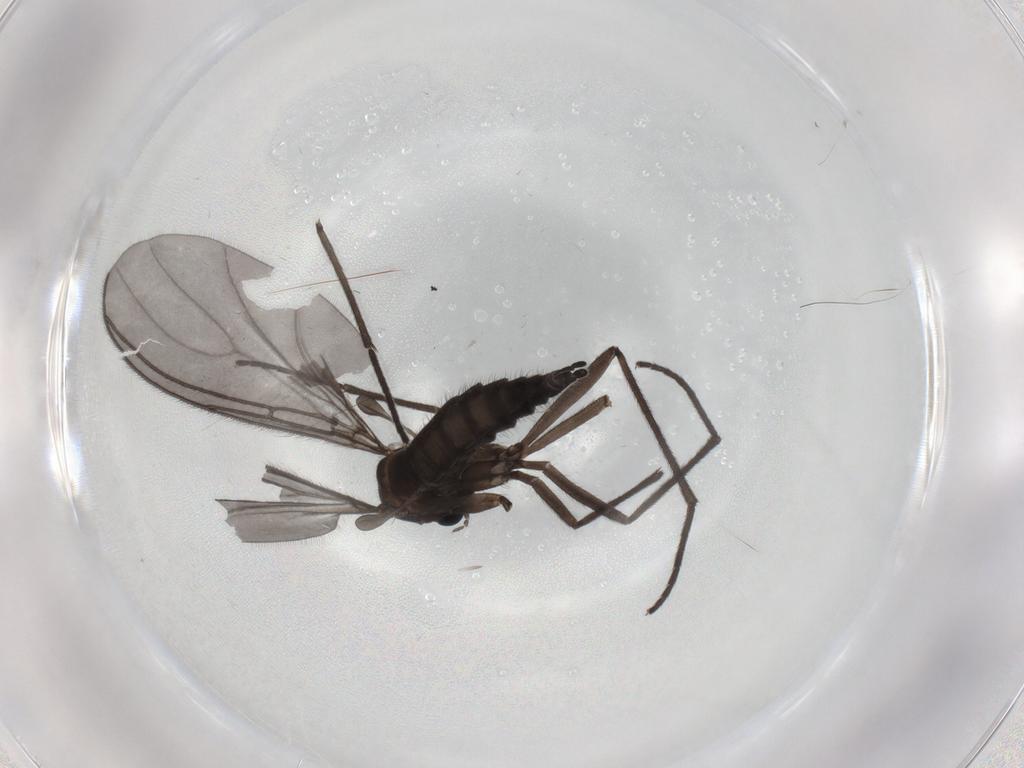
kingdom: Animalia
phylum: Arthropoda
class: Insecta
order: Diptera
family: Sciaridae
